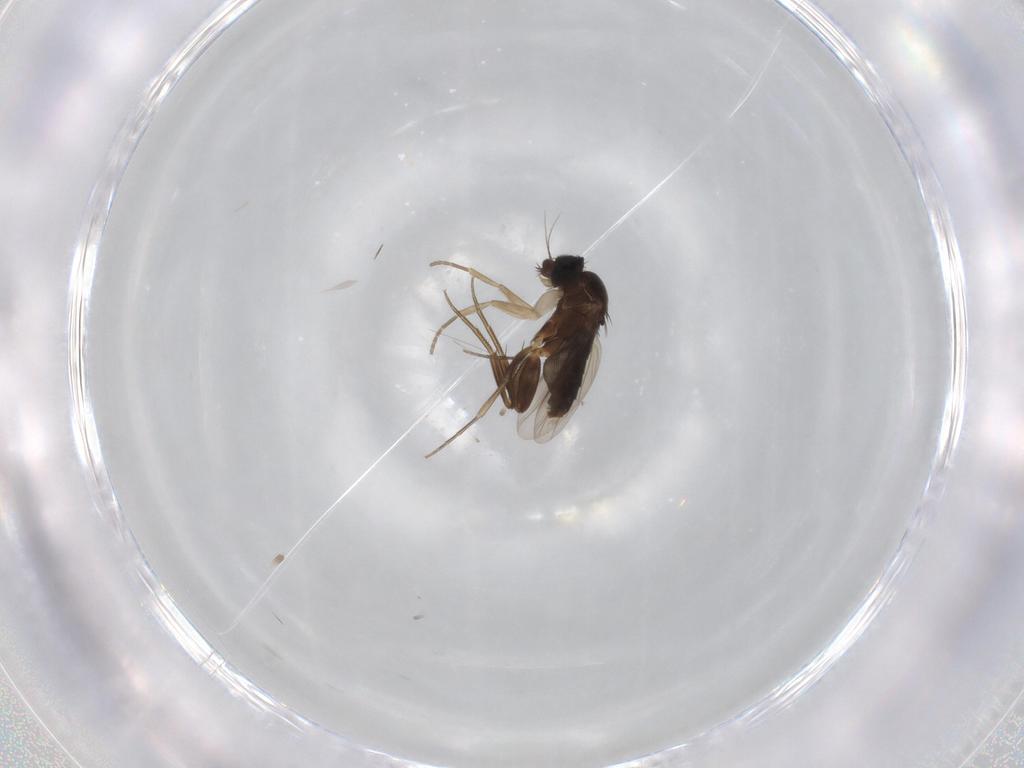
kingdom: Animalia
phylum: Arthropoda
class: Insecta
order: Diptera
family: Phoridae
